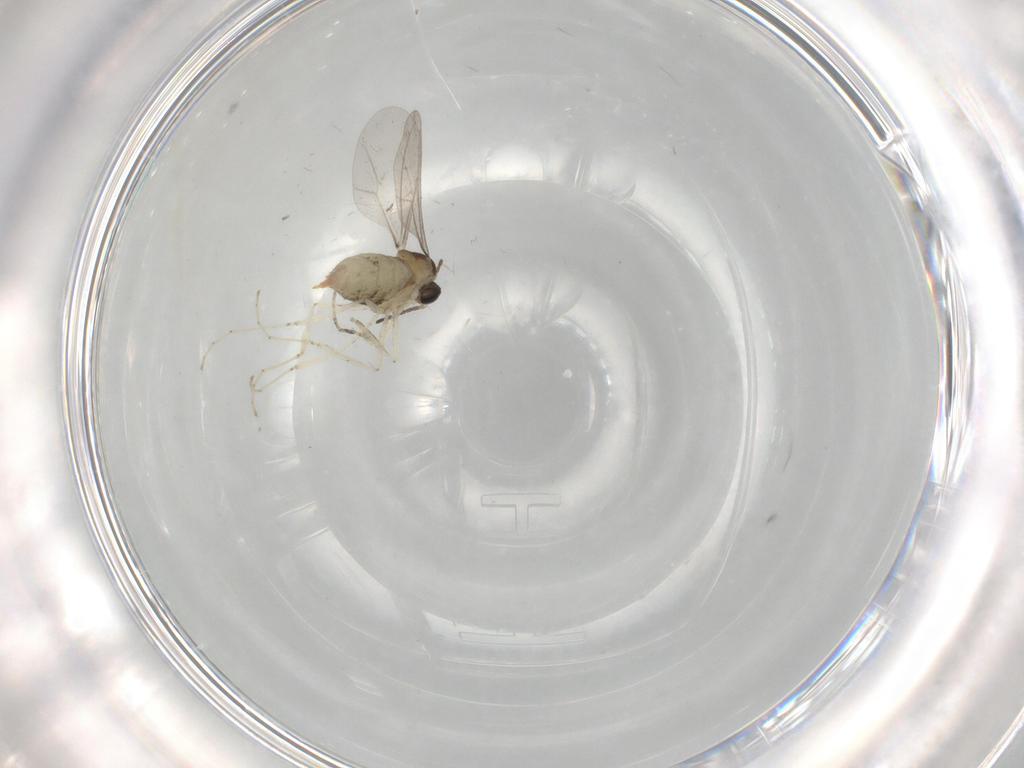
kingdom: Animalia
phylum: Arthropoda
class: Insecta
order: Diptera
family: Cecidomyiidae
